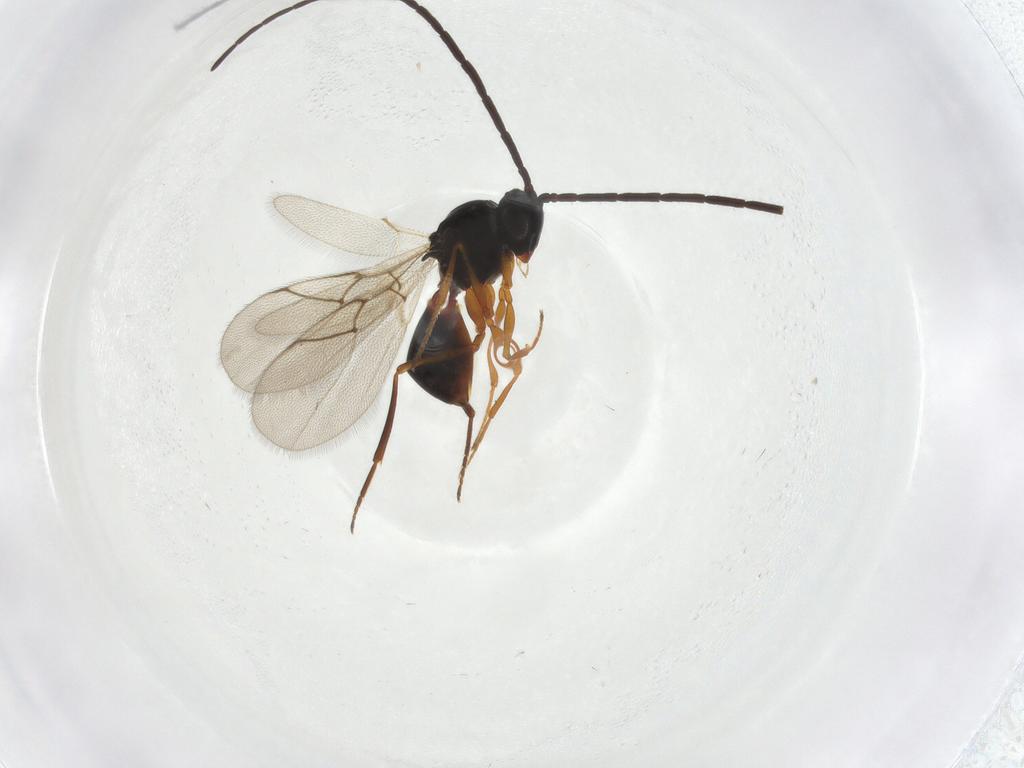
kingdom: Animalia
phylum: Arthropoda
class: Insecta
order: Hymenoptera
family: Figitidae
